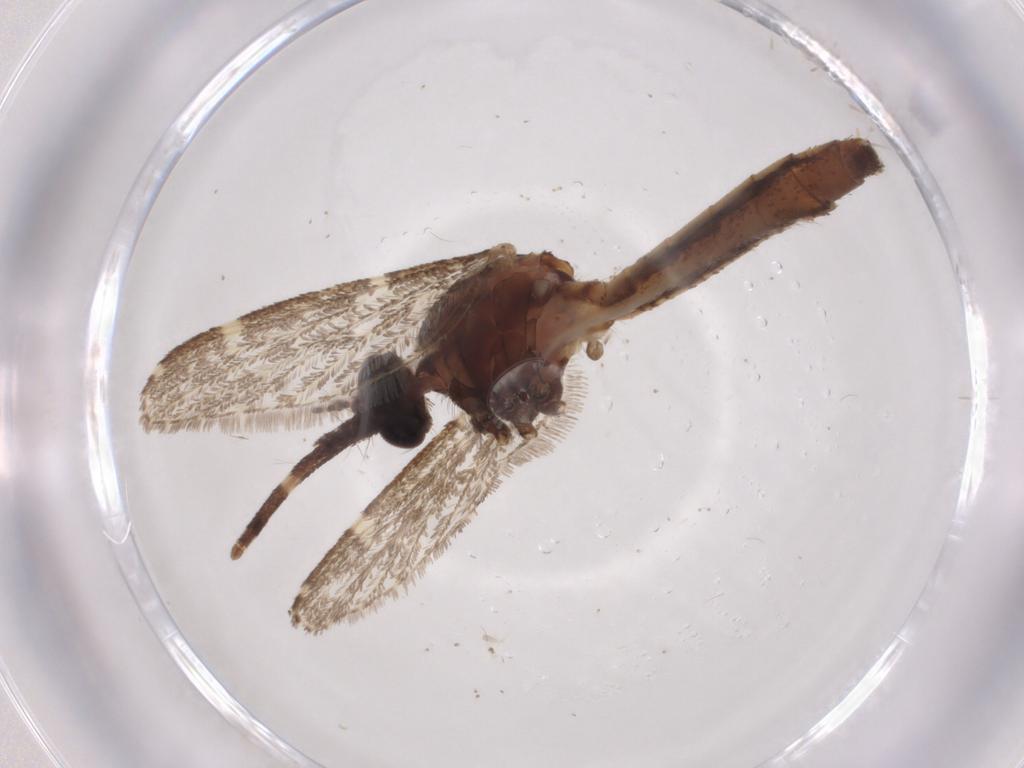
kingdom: Animalia
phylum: Arthropoda
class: Insecta
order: Diptera
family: Culicidae
